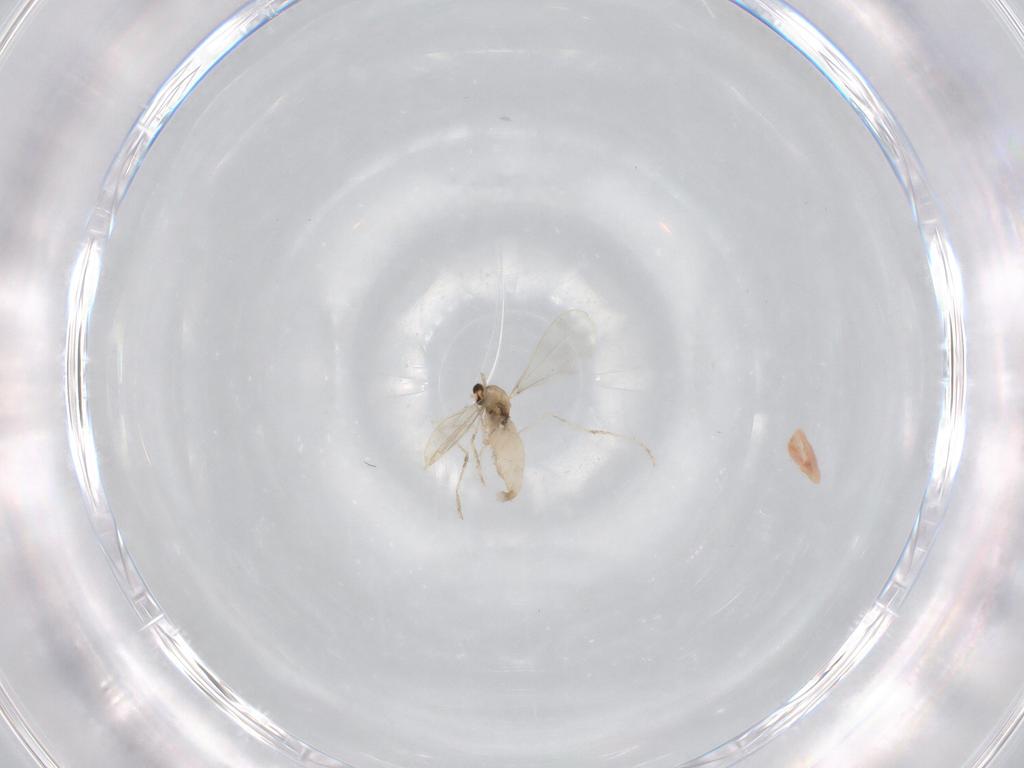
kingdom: Animalia
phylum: Arthropoda
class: Insecta
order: Diptera
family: Cecidomyiidae
